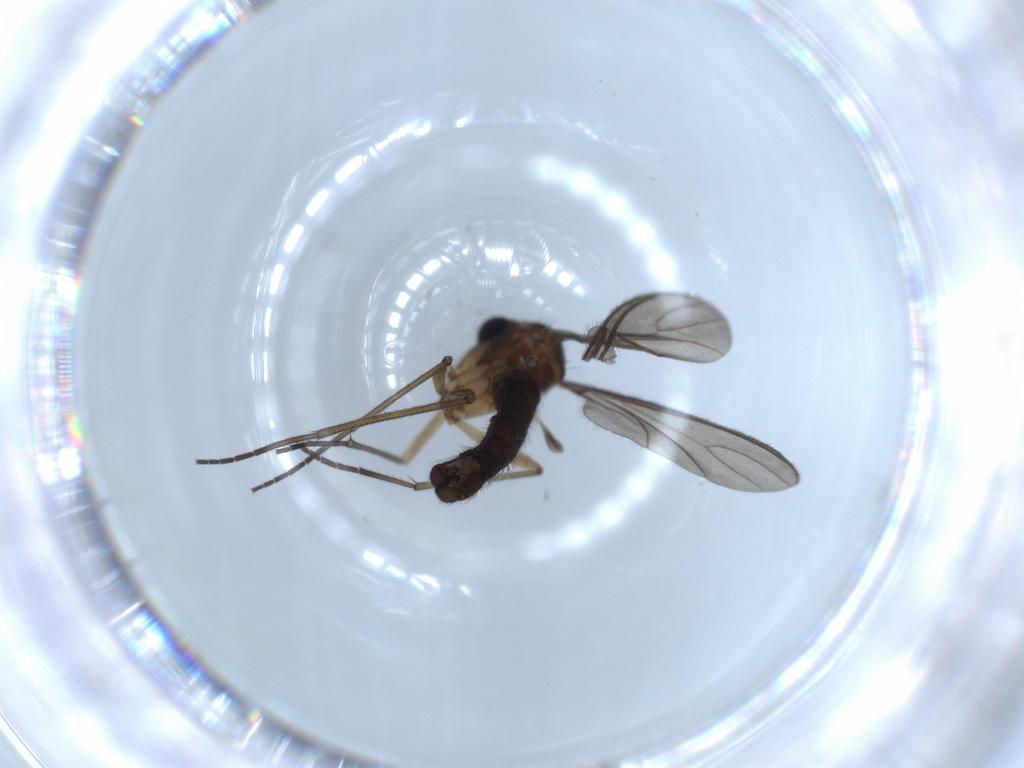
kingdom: Animalia
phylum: Arthropoda
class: Insecta
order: Diptera
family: Sciaridae
